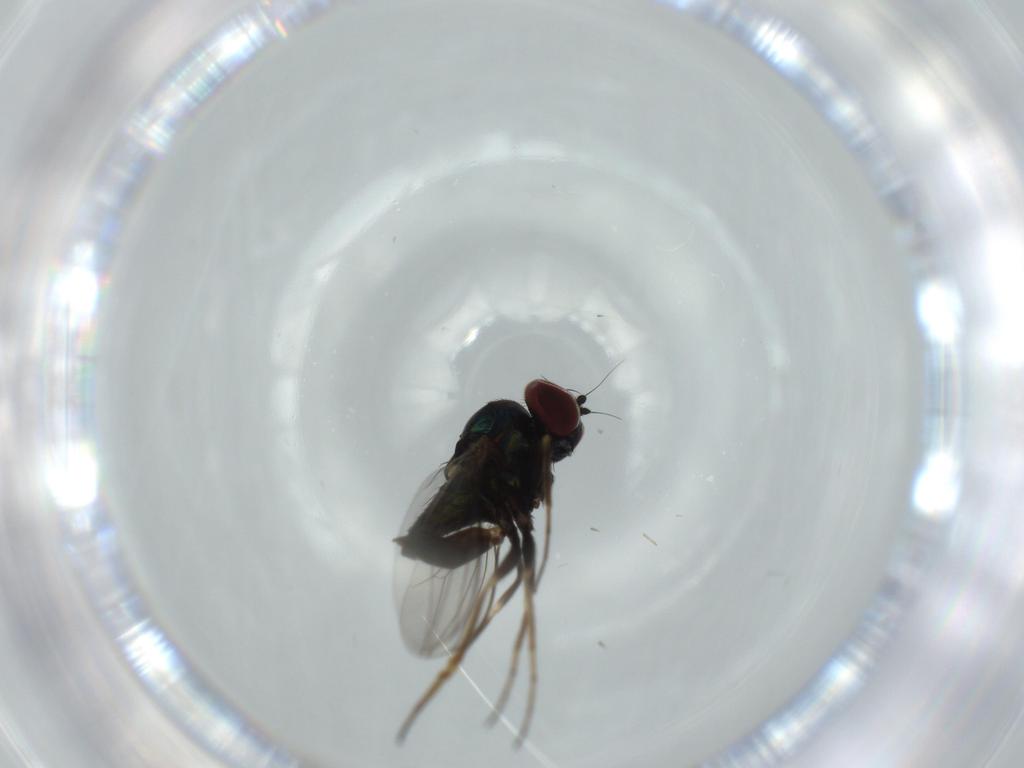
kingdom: Animalia
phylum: Arthropoda
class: Insecta
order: Diptera
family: Dolichopodidae
